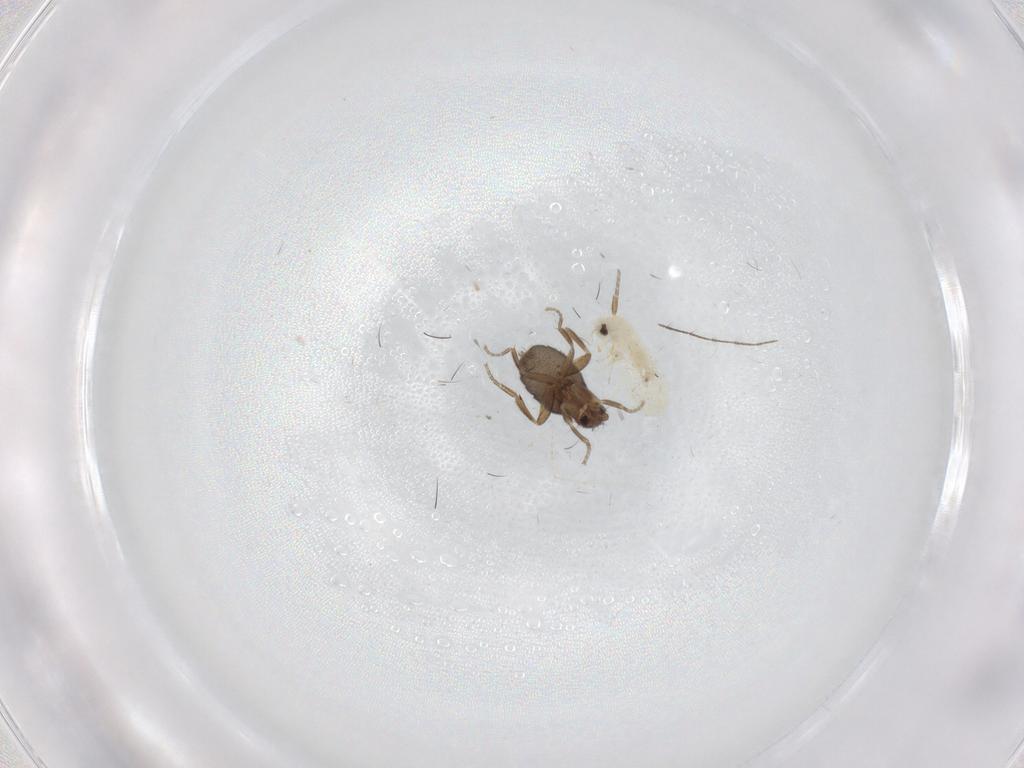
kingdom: Animalia
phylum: Arthropoda
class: Insecta
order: Hemiptera
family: Aleyrodidae
